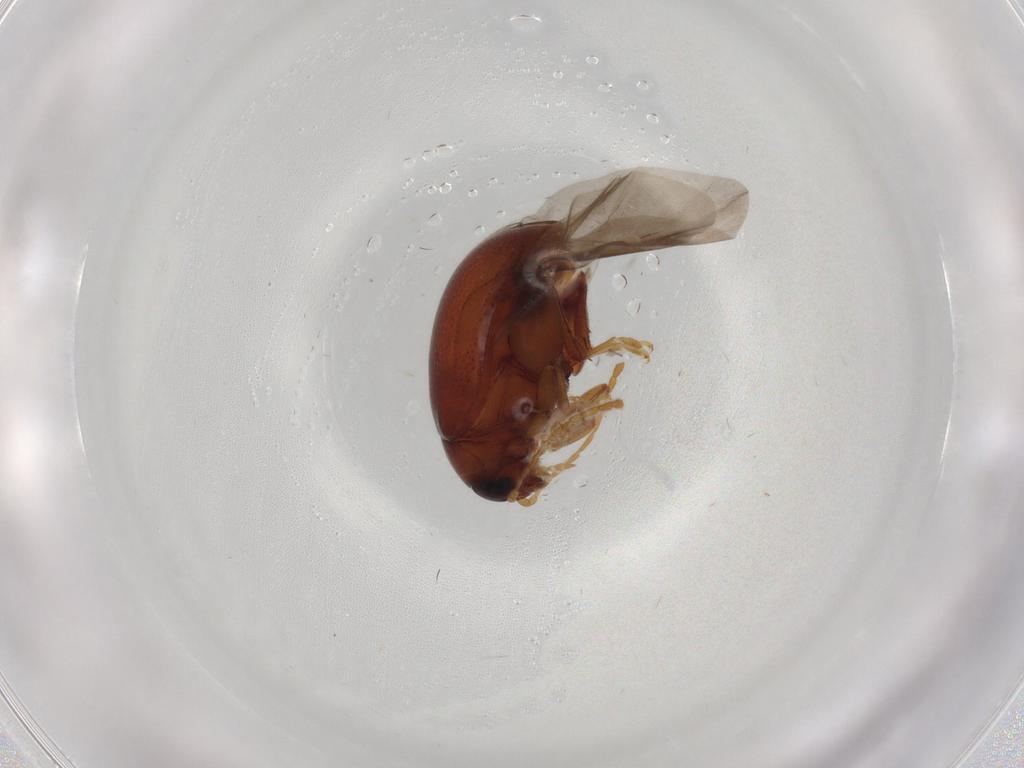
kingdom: Animalia
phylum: Arthropoda
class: Insecta
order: Coleoptera
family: Chrysomelidae
